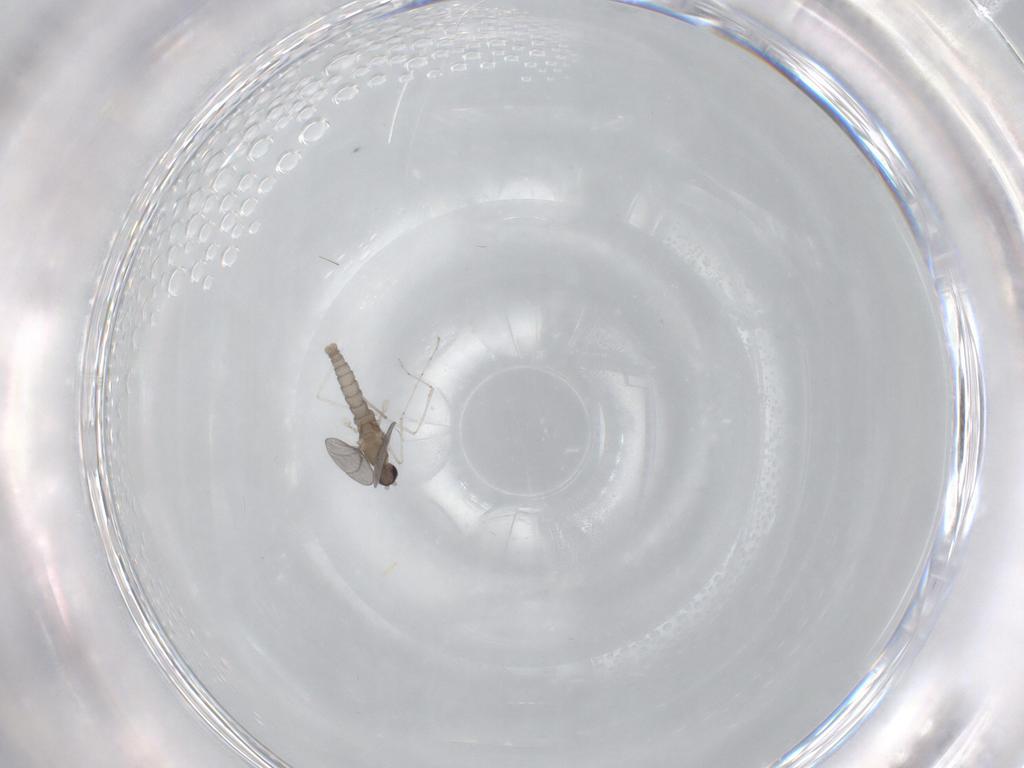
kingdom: Animalia
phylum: Arthropoda
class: Insecta
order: Diptera
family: Cecidomyiidae
